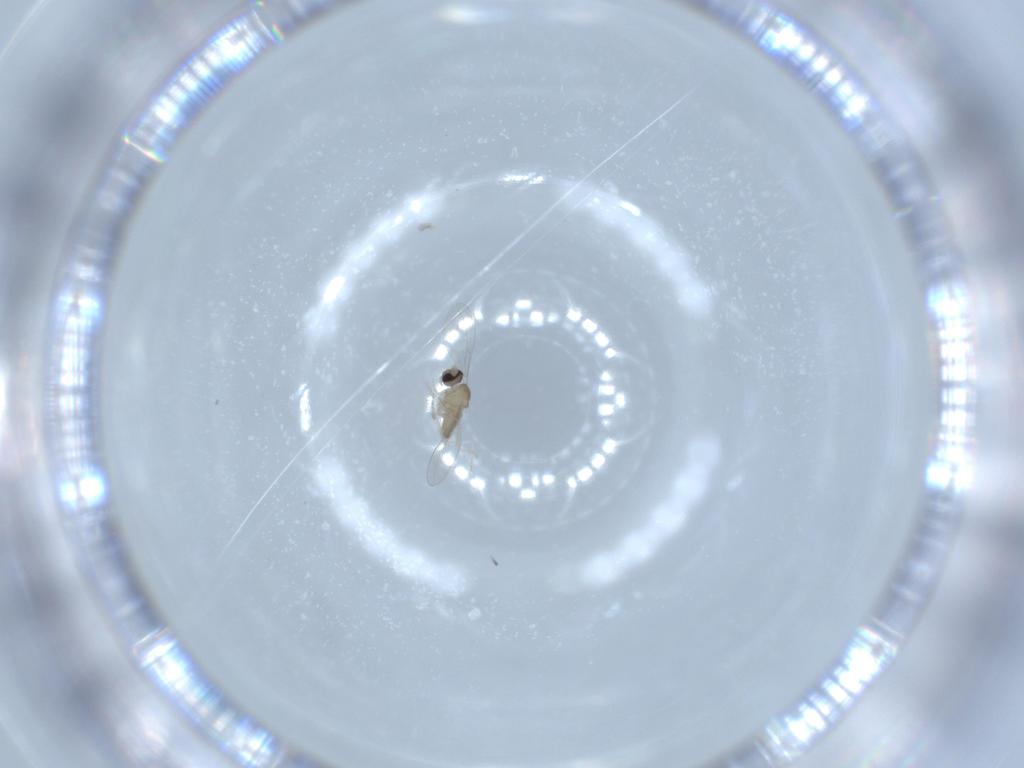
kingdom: Animalia
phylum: Arthropoda
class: Insecta
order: Diptera
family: Cecidomyiidae
